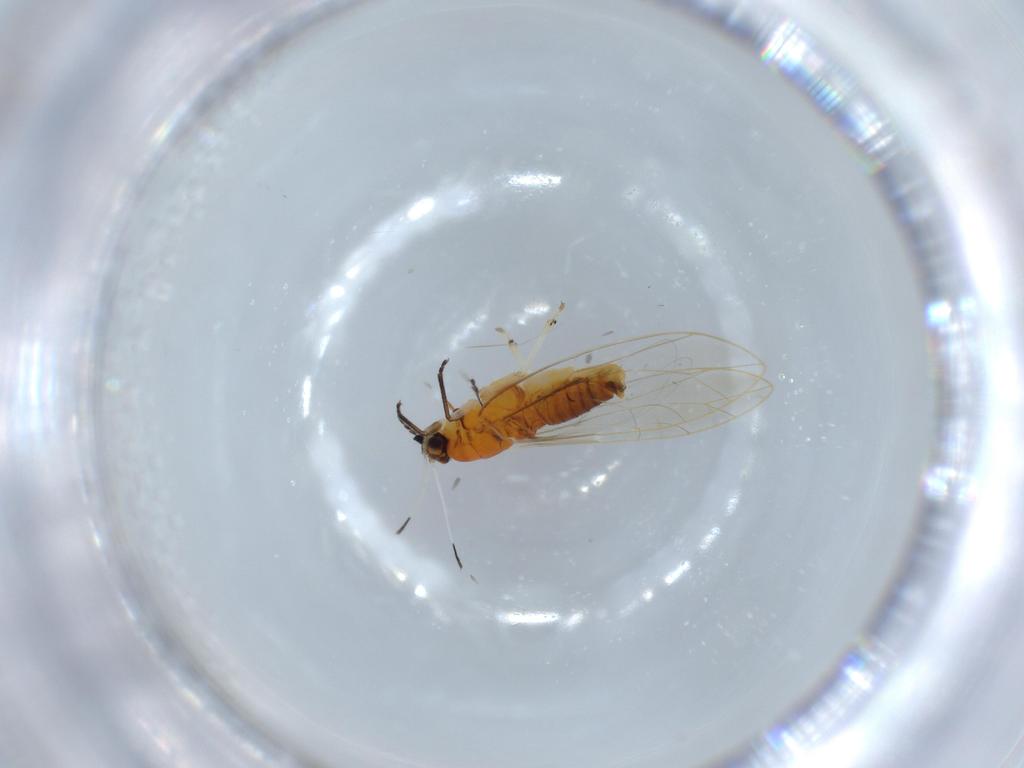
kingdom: Animalia
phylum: Arthropoda
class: Insecta
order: Hemiptera
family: Triozidae
